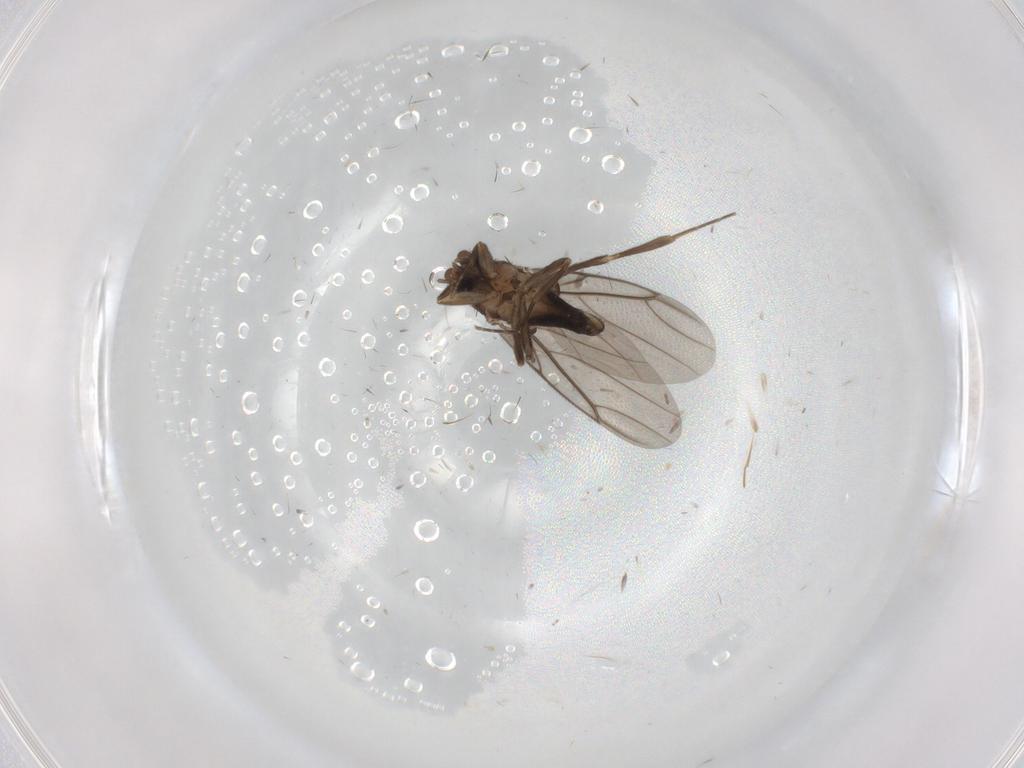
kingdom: Animalia
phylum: Arthropoda
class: Insecta
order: Diptera
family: Cecidomyiidae
